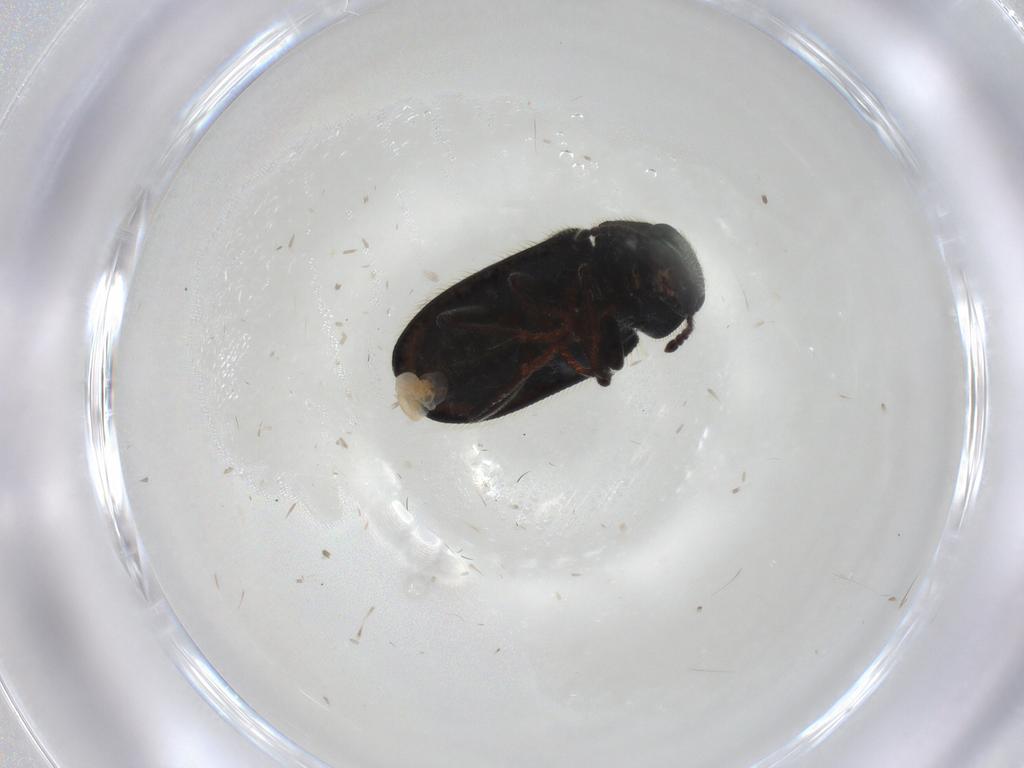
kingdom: Animalia
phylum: Arthropoda
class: Insecta
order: Coleoptera
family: Melyridae
